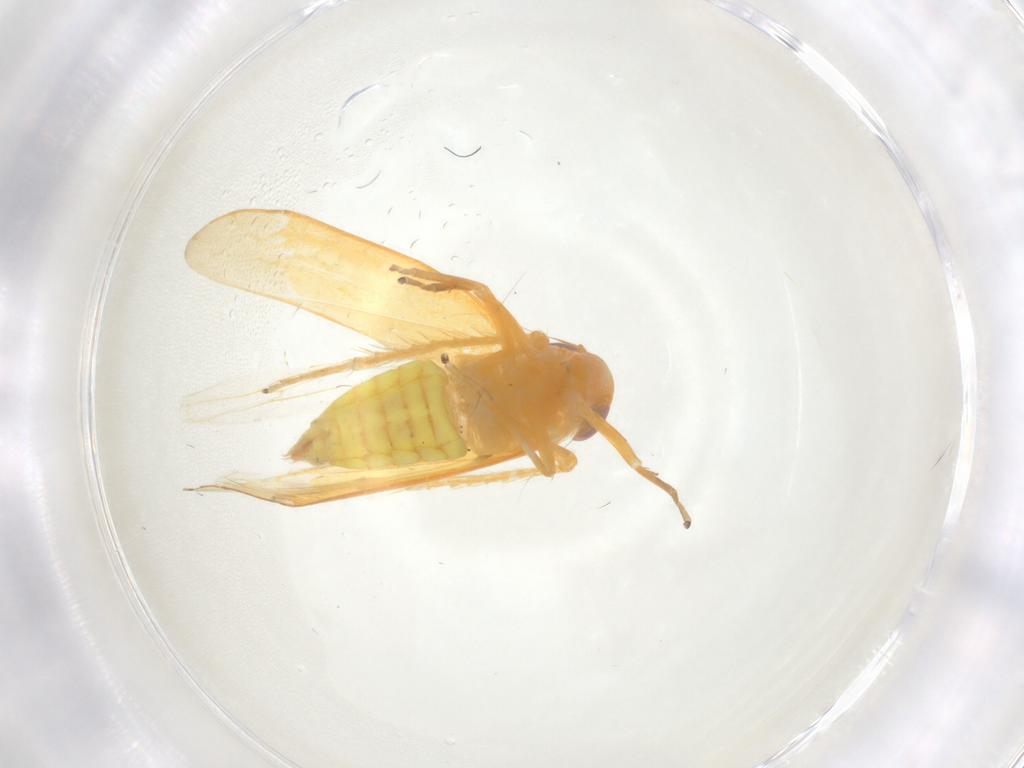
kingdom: Animalia
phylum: Arthropoda
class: Insecta
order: Hemiptera
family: Cicadellidae
